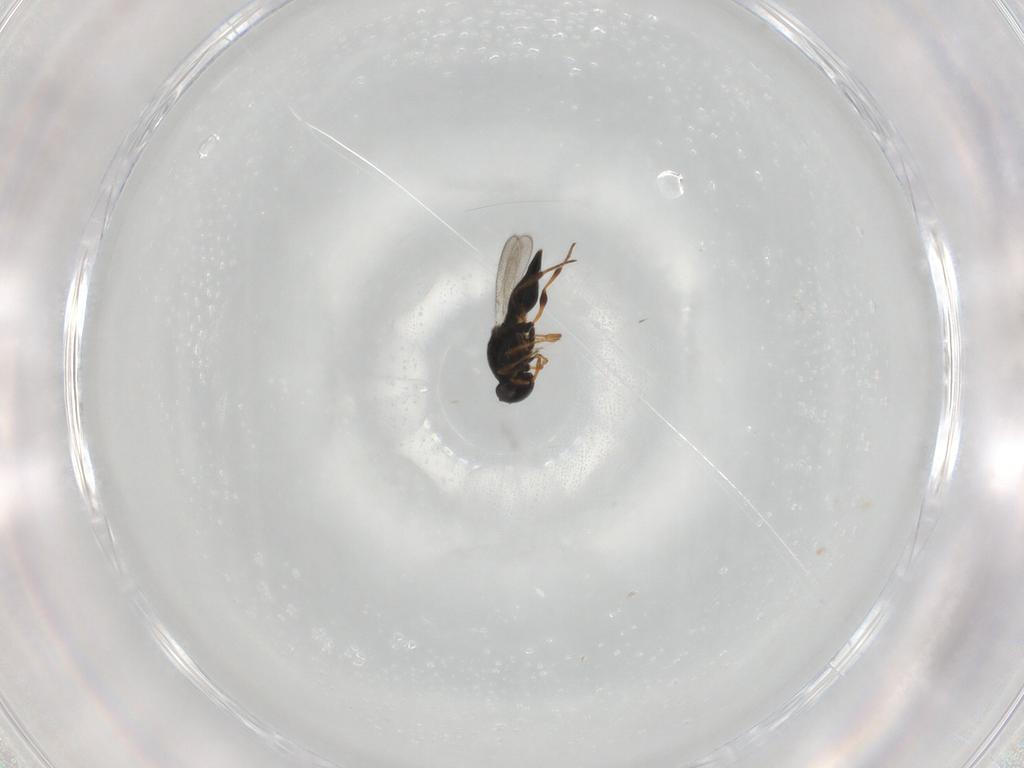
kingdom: Animalia
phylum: Arthropoda
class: Insecta
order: Hymenoptera
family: Platygastridae
